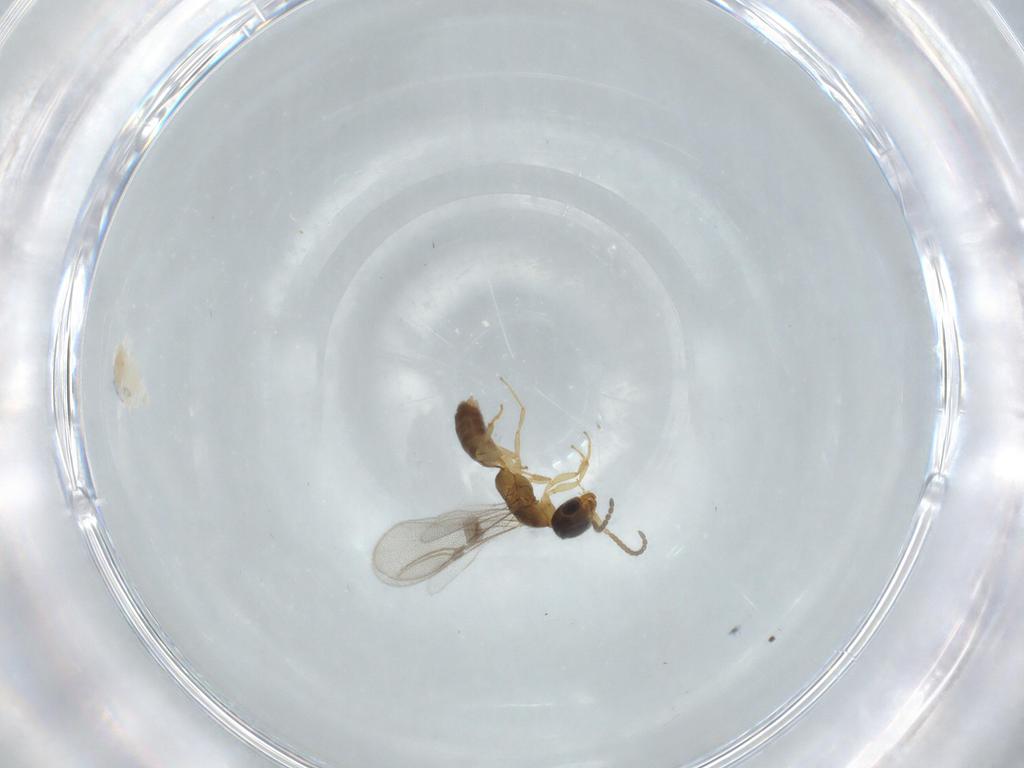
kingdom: Animalia
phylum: Arthropoda
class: Insecta
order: Hymenoptera
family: Bethylidae
